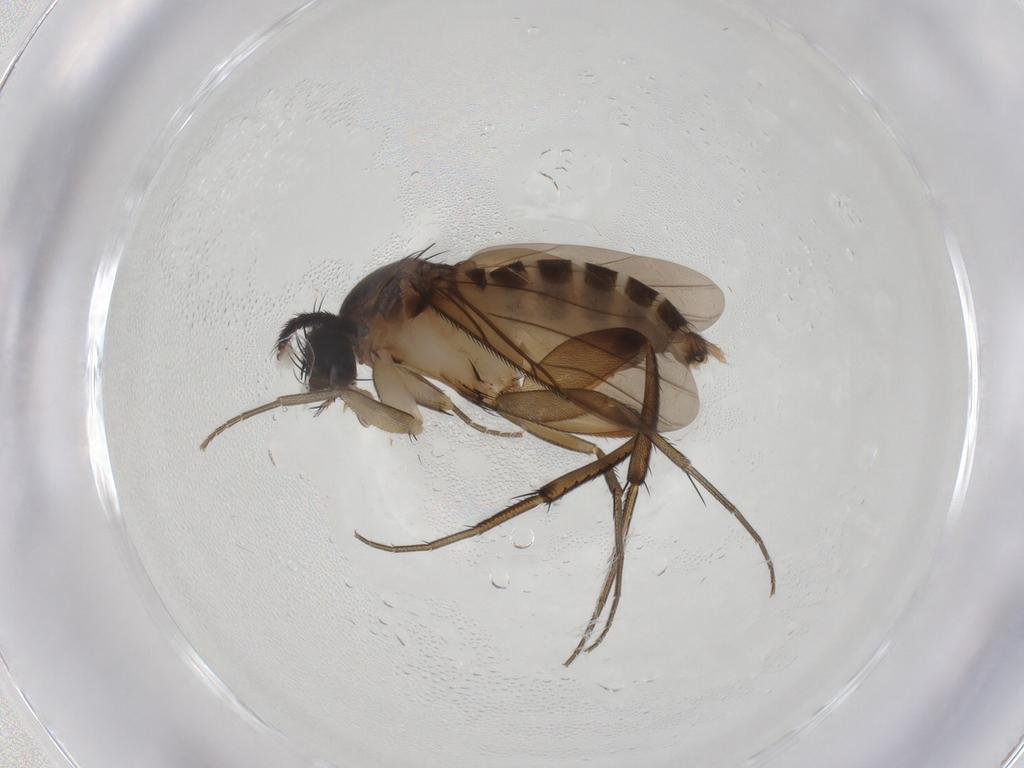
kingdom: Animalia
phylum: Arthropoda
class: Insecta
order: Diptera
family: Phoridae
